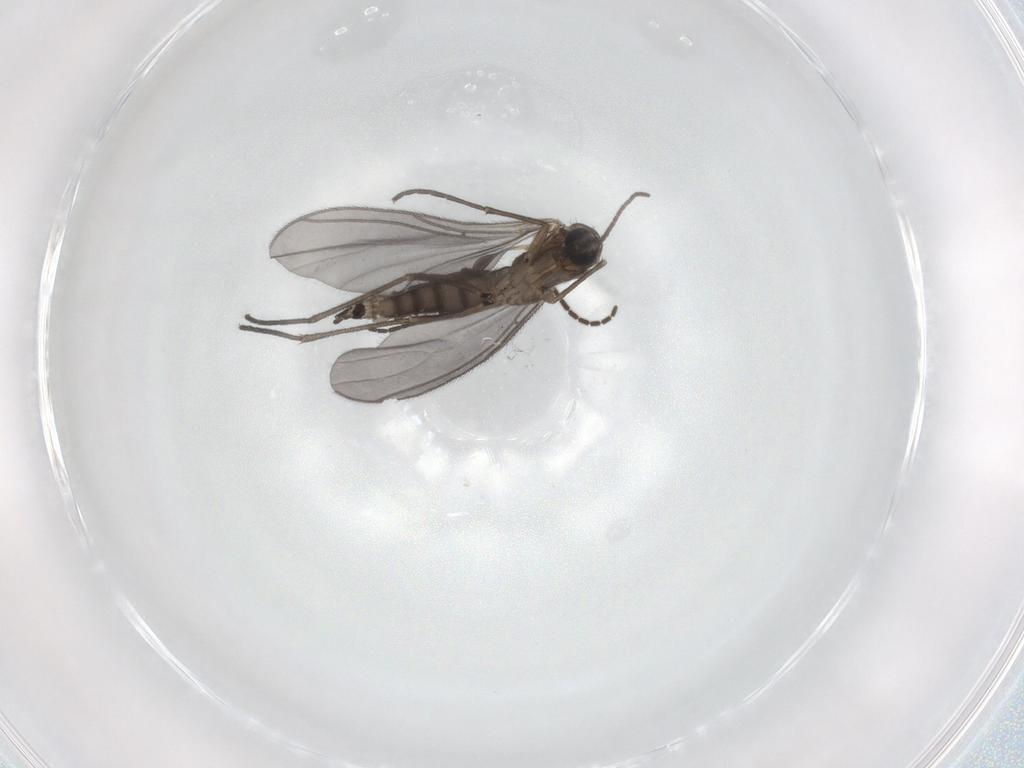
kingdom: Animalia
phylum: Arthropoda
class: Insecta
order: Diptera
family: Sciaridae
